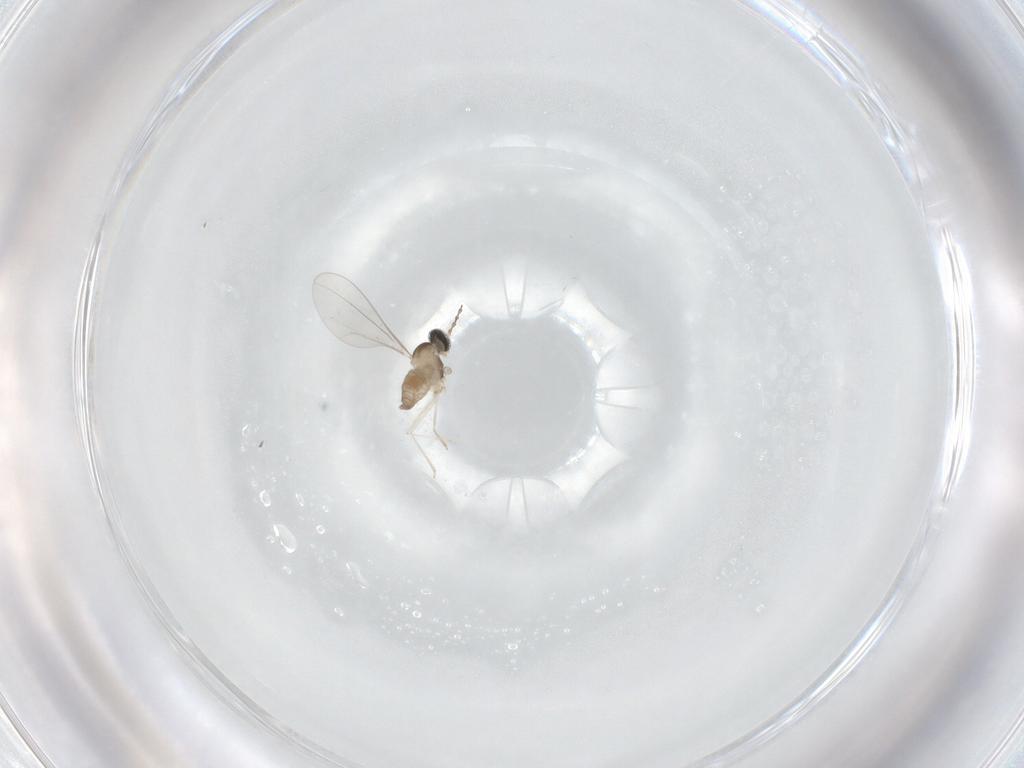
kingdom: Animalia
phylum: Arthropoda
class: Insecta
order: Diptera
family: Cecidomyiidae
